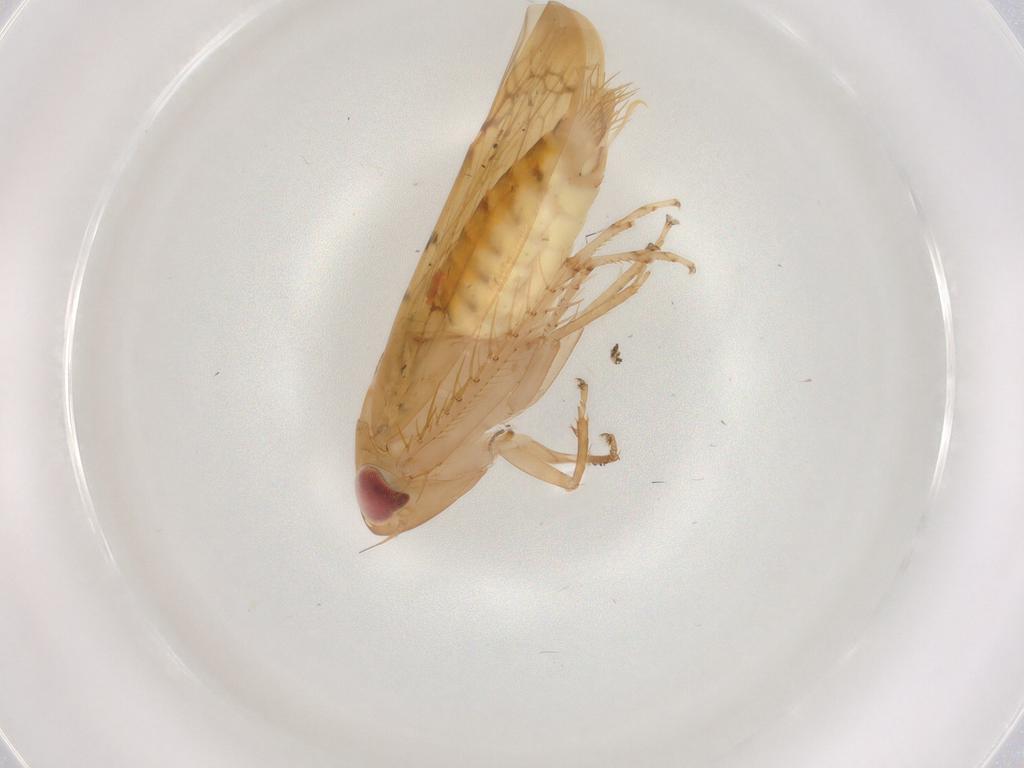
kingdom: Animalia
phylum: Arthropoda
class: Insecta
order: Hemiptera
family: Cicadellidae
